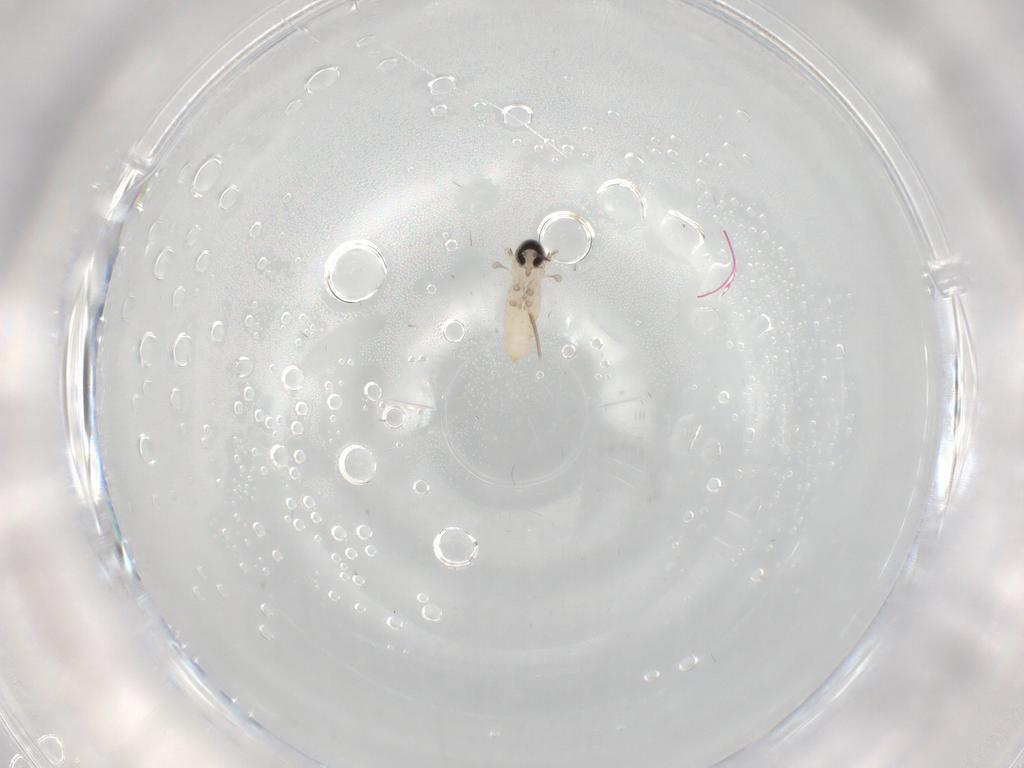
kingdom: Animalia
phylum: Arthropoda
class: Insecta
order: Diptera
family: Cecidomyiidae
